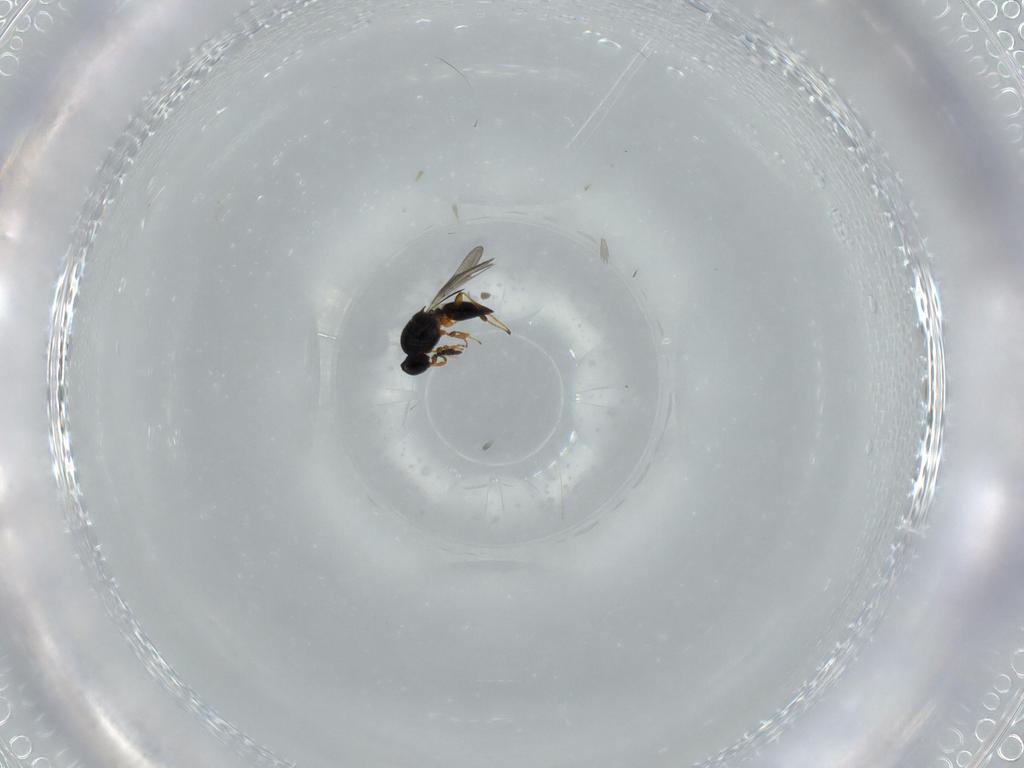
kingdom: Animalia
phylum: Arthropoda
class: Insecta
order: Hymenoptera
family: Platygastridae
